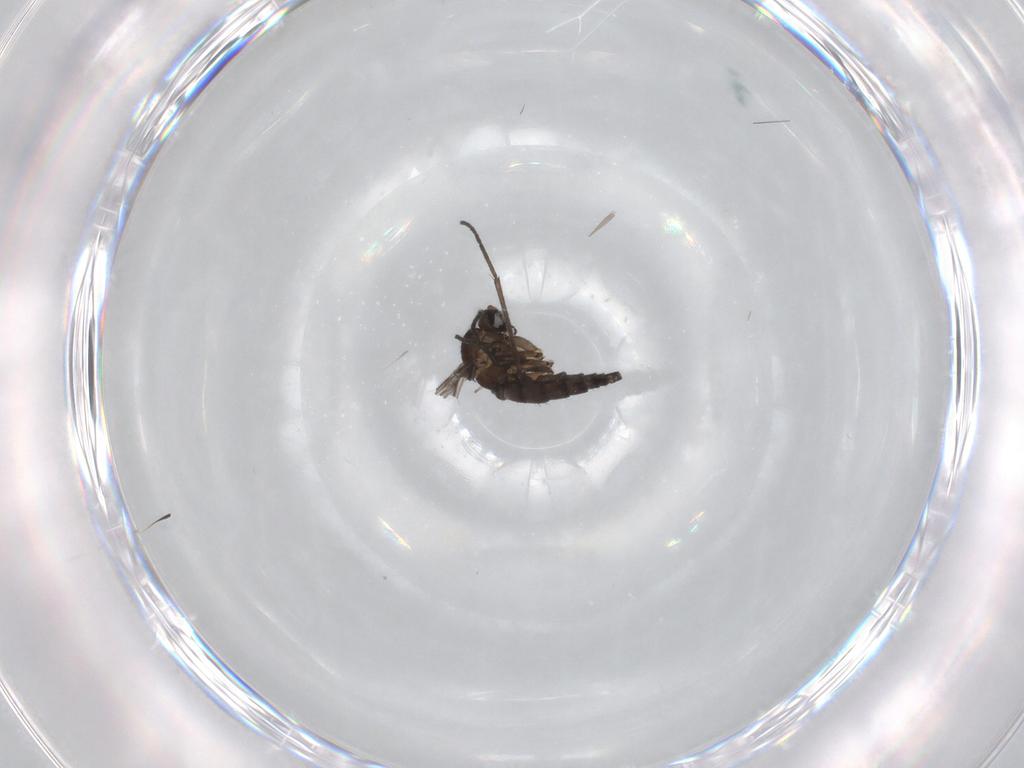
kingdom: Animalia
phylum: Arthropoda
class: Insecta
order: Diptera
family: Sciaridae
